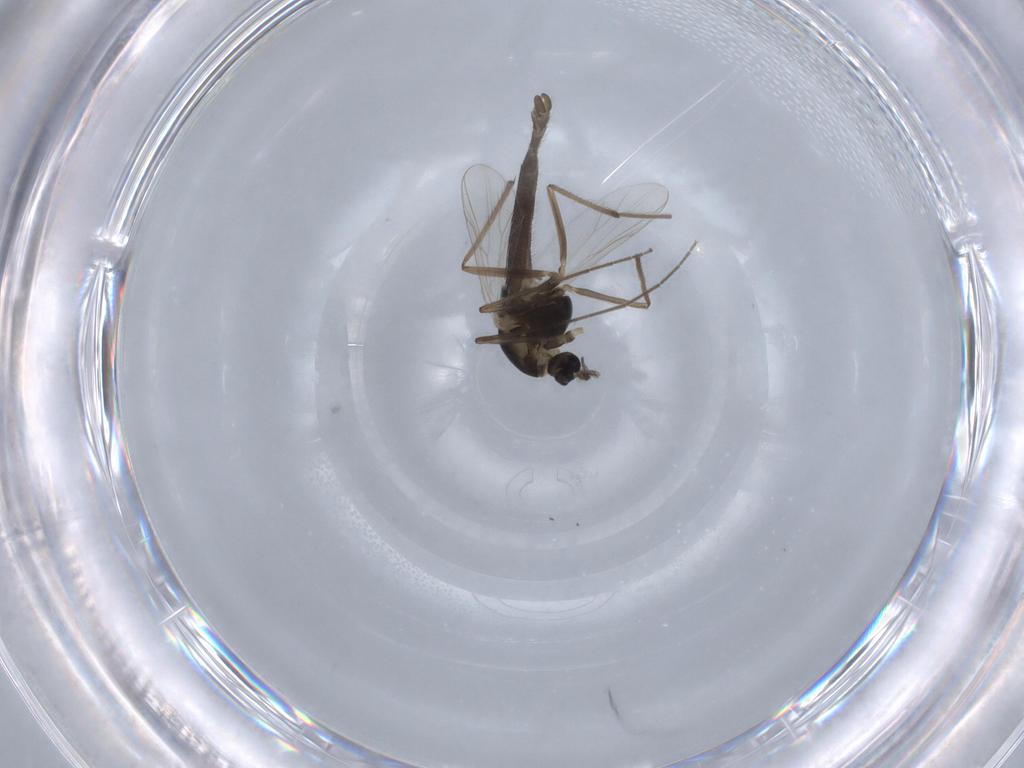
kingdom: Animalia
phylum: Arthropoda
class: Insecta
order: Diptera
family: Chironomidae
